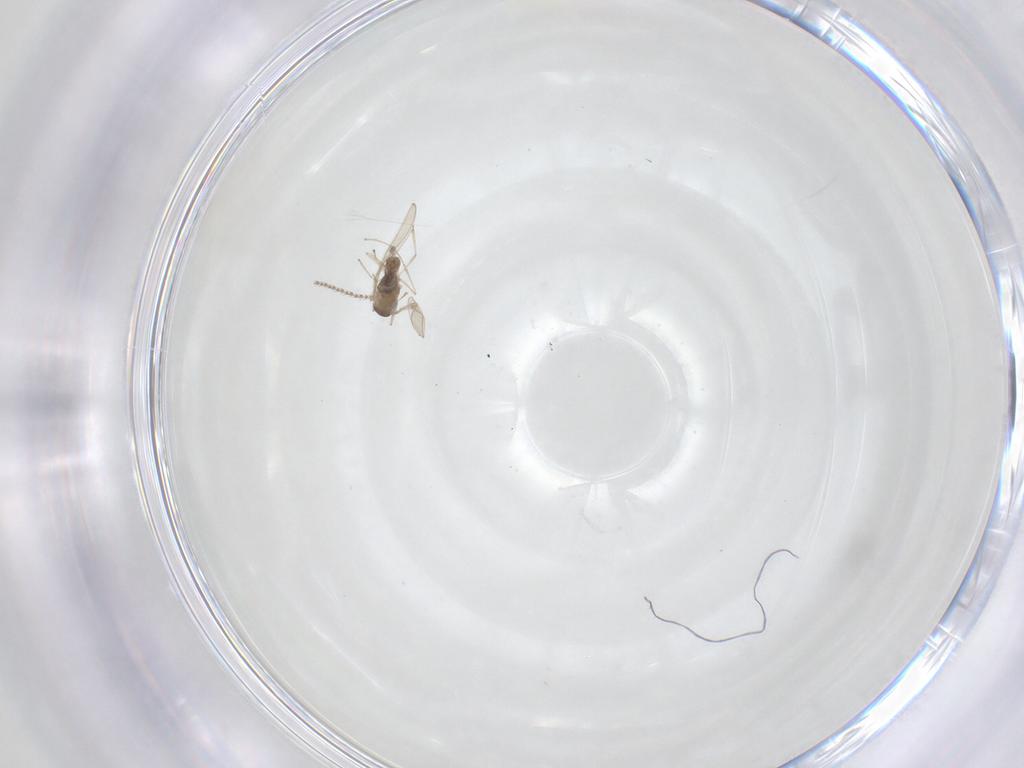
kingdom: Animalia
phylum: Arthropoda
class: Insecta
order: Diptera
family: Cecidomyiidae
